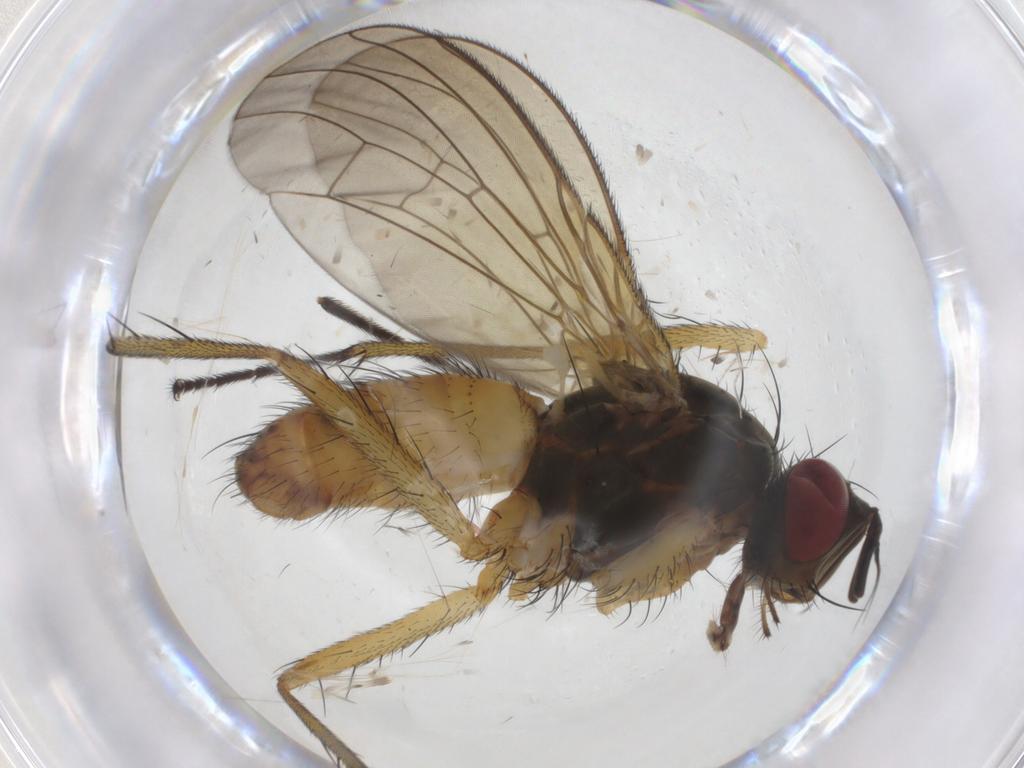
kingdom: Animalia
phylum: Arthropoda
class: Insecta
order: Diptera
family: Muscidae
